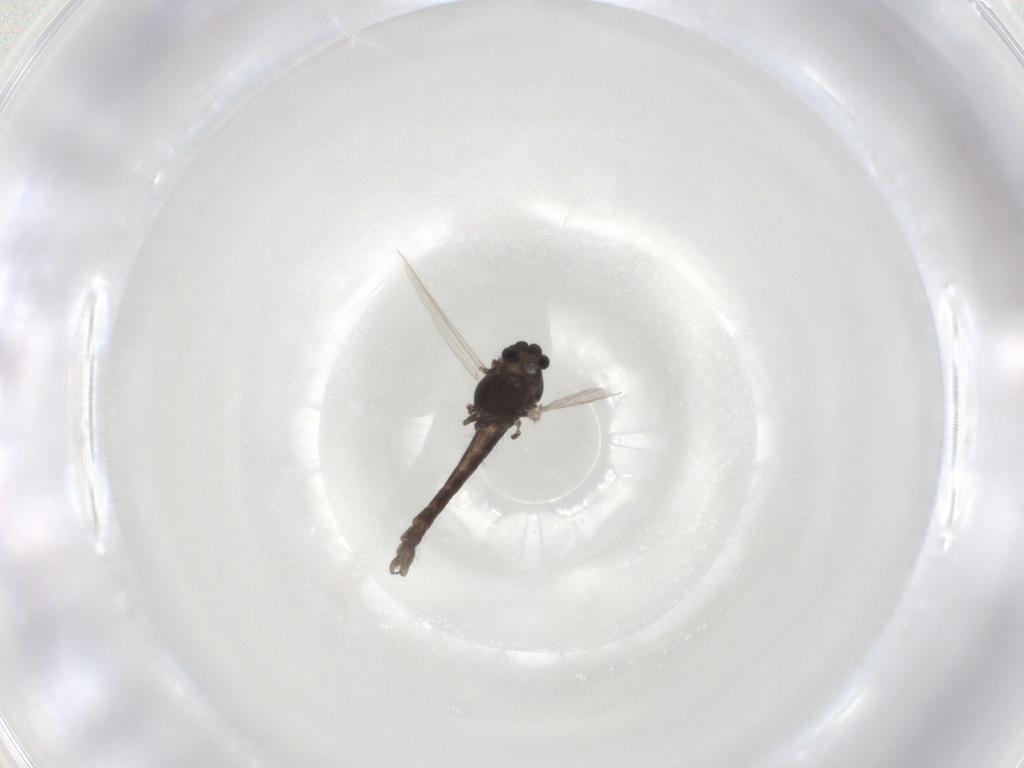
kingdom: Animalia
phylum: Arthropoda
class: Insecta
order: Diptera
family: Chironomidae
